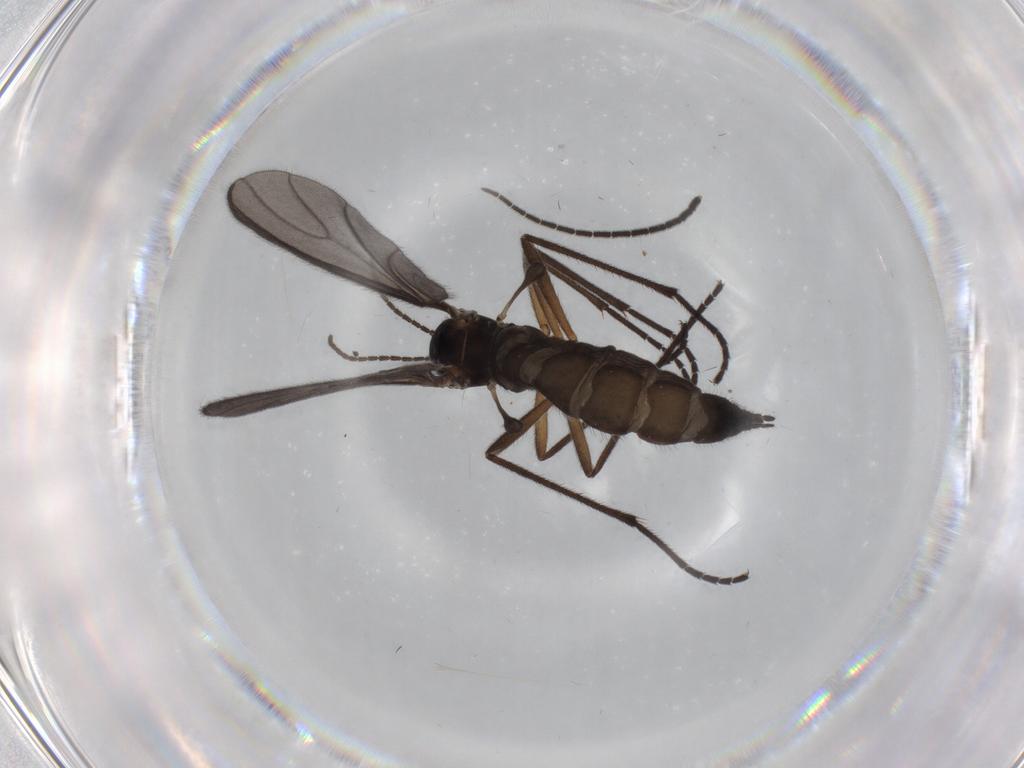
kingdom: Animalia
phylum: Arthropoda
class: Insecta
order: Diptera
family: Sciaridae
